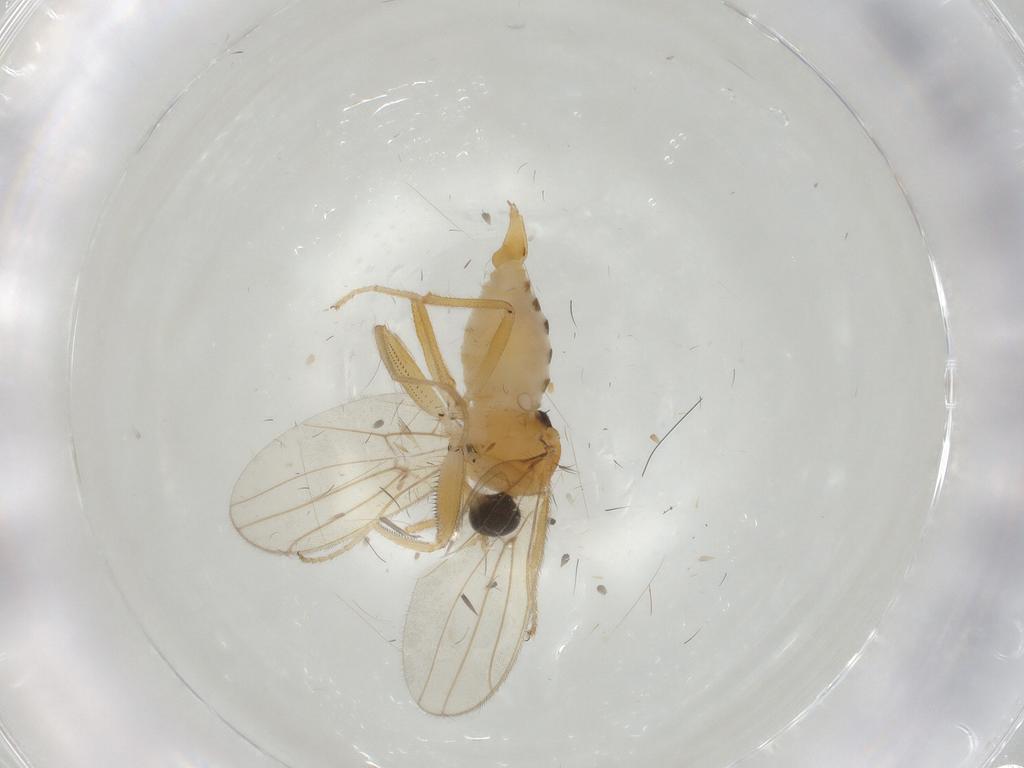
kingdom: Animalia
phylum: Arthropoda
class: Insecta
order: Diptera
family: Hybotidae
